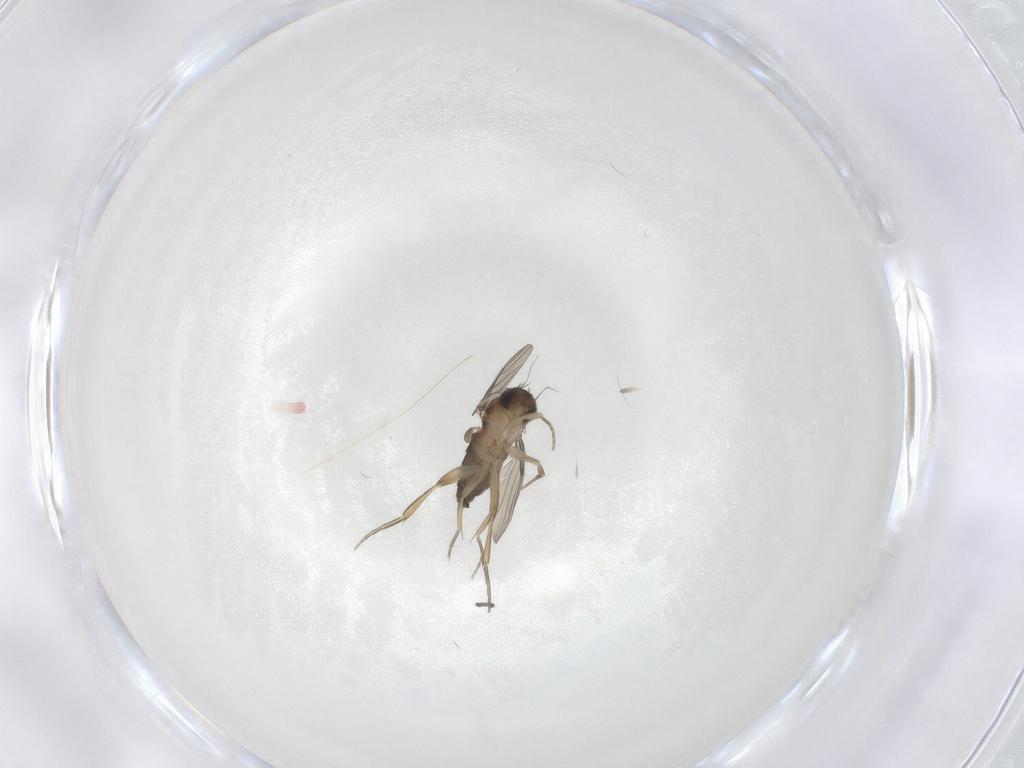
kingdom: Animalia
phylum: Arthropoda
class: Insecta
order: Diptera
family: Phoridae
